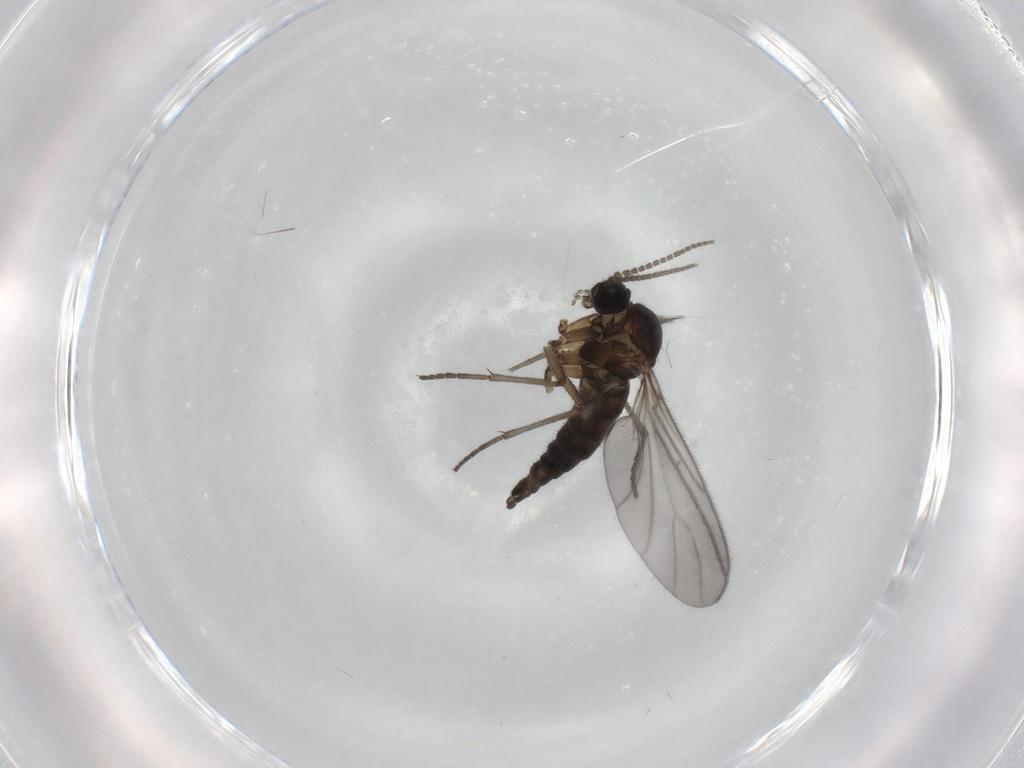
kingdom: Animalia
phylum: Arthropoda
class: Insecta
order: Diptera
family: Sciaridae
